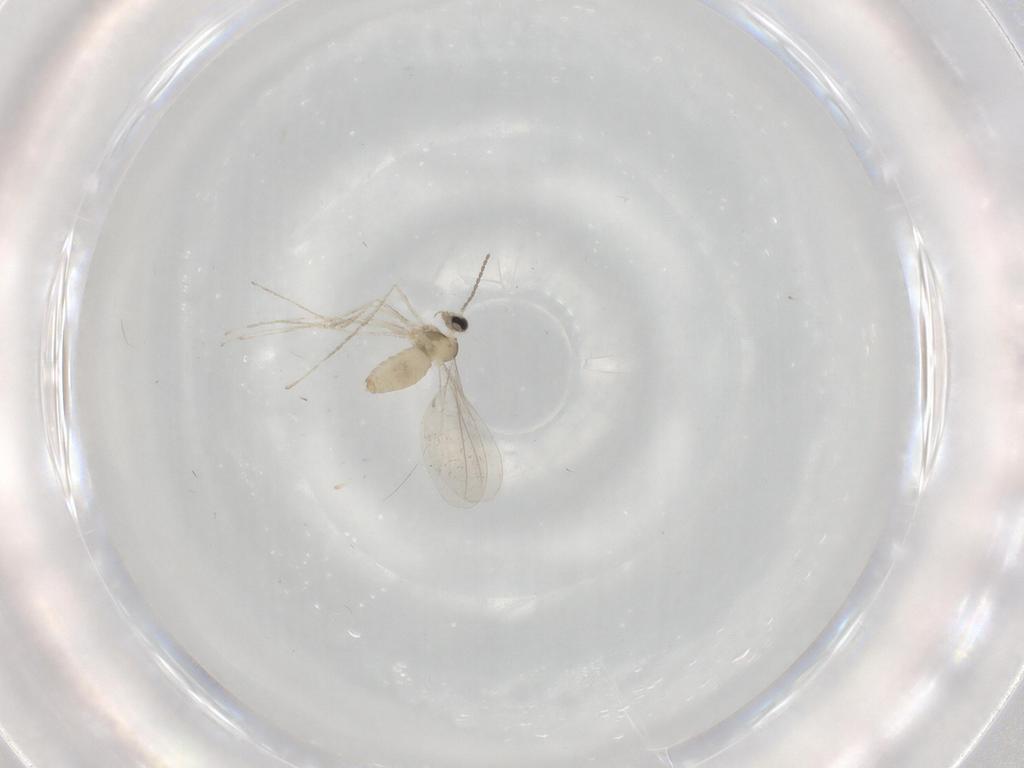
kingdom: Animalia
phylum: Arthropoda
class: Insecta
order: Diptera
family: Cecidomyiidae
